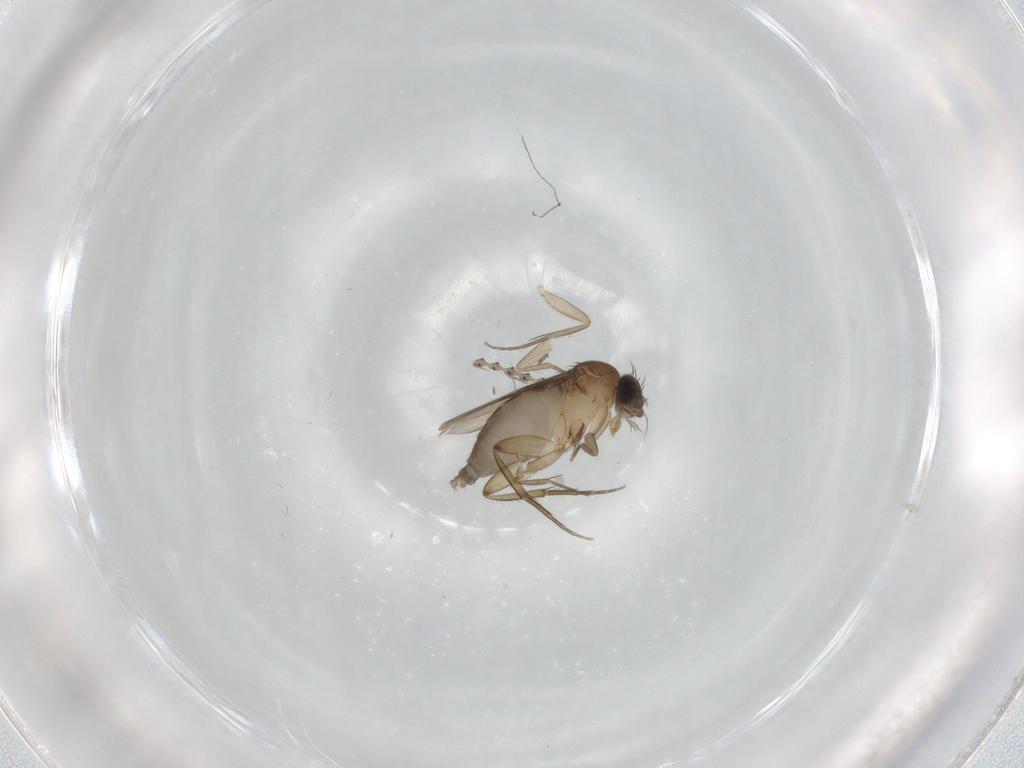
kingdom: Animalia
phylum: Arthropoda
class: Insecta
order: Diptera
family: Phoridae
